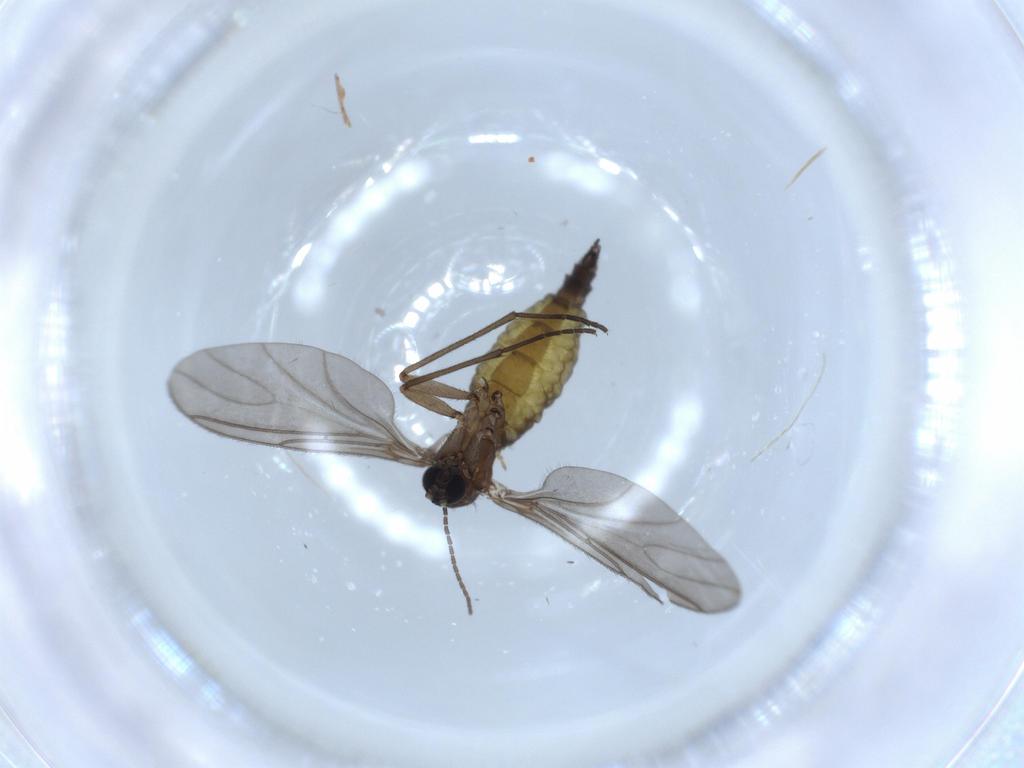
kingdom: Animalia
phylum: Arthropoda
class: Insecta
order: Diptera
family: Sciaridae
